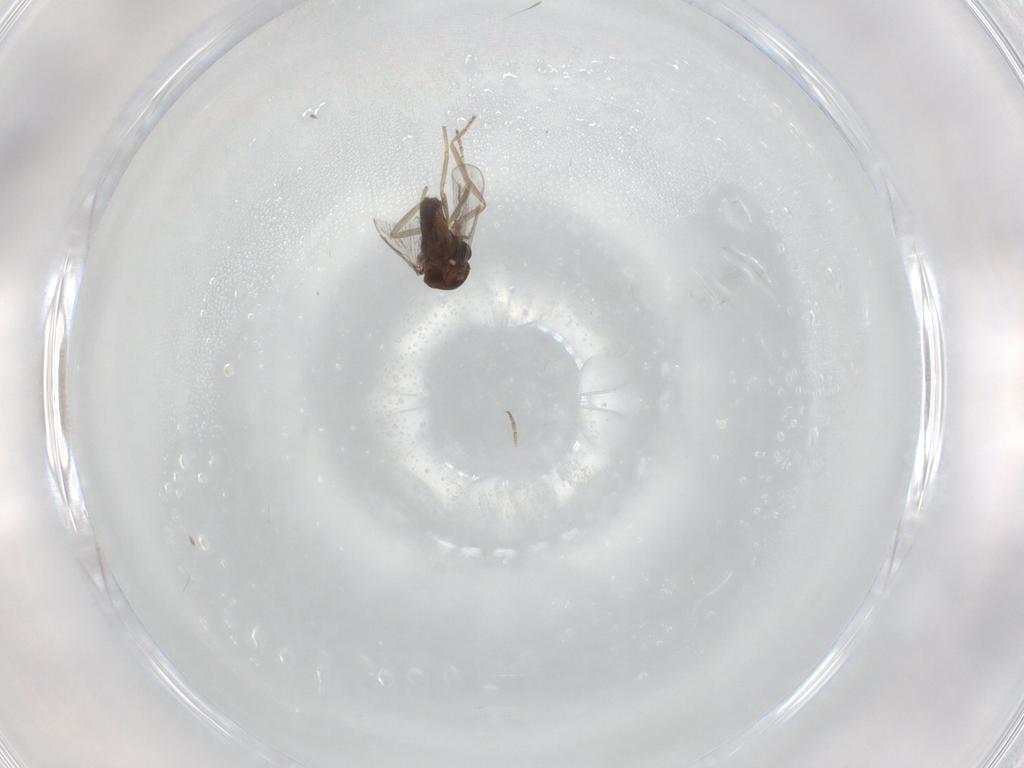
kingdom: Animalia
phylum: Arthropoda
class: Insecta
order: Diptera
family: Ceratopogonidae
